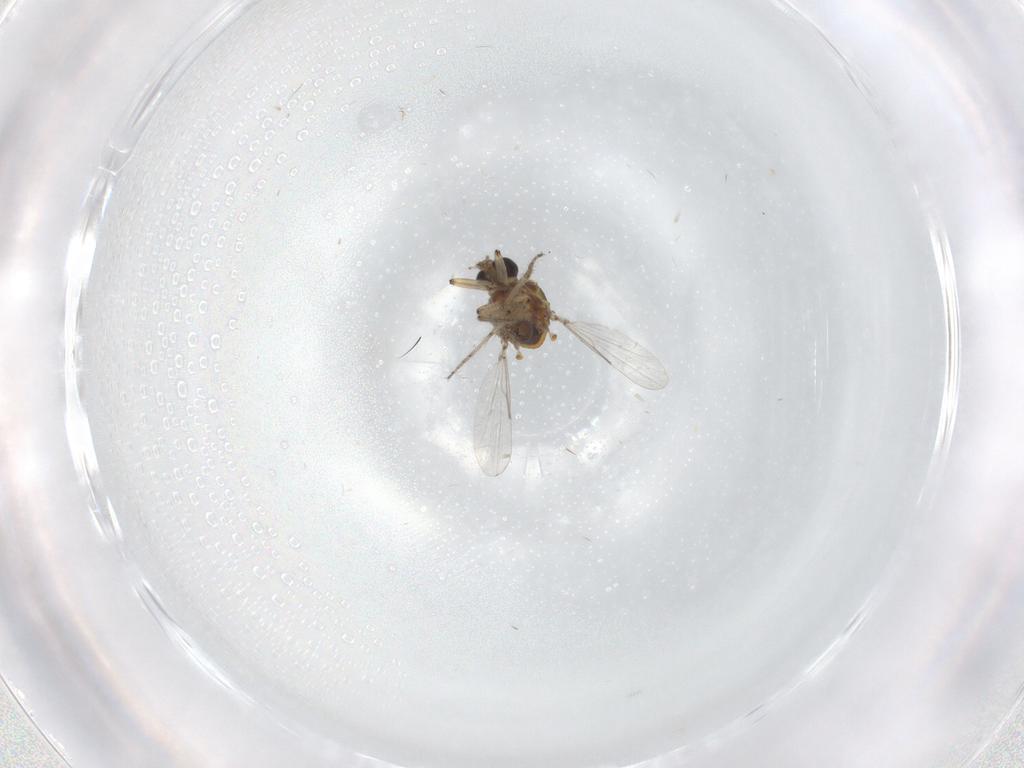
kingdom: Animalia
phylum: Arthropoda
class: Insecta
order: Diptera
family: Ceratopogonidae
